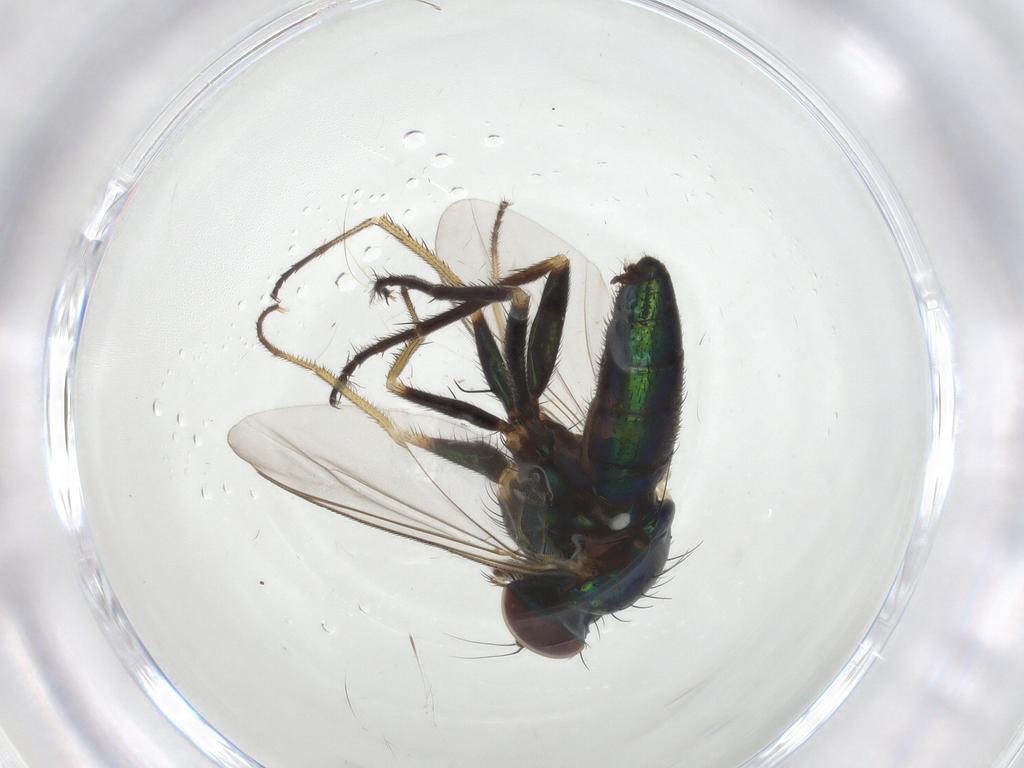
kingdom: Animalia
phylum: Arthropoda
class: Insecta
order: Diptera
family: Dolichopodidae
